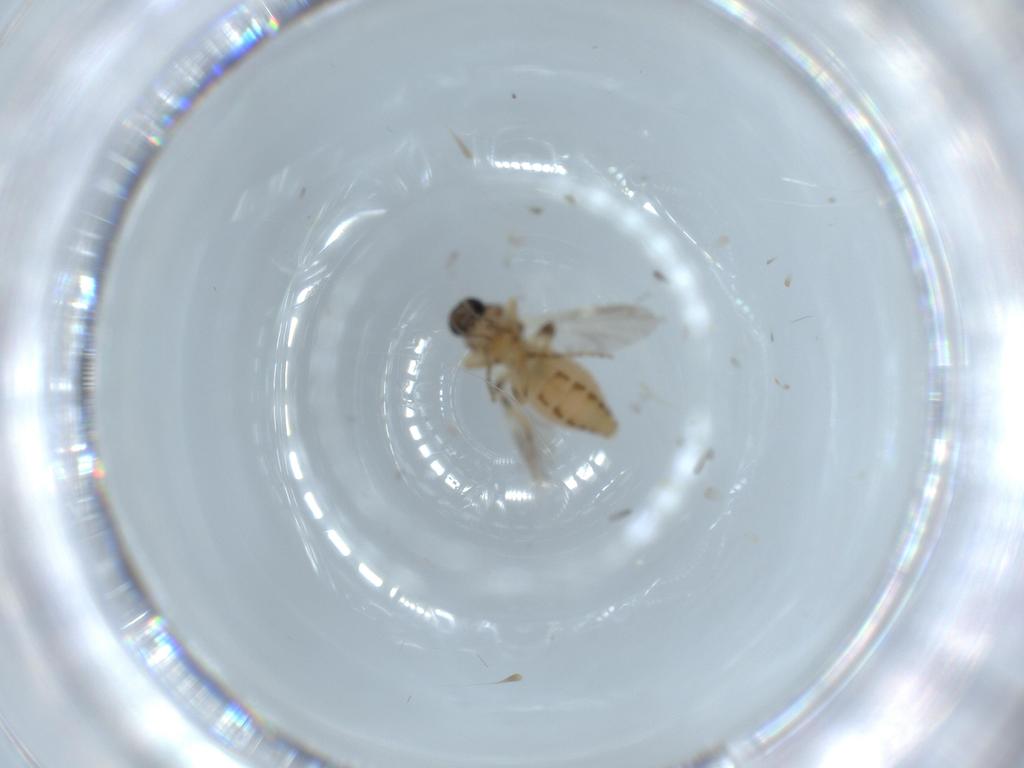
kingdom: Animalia
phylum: Arthropoda
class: Insecta
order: Diptera
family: Ceratopogonidae
